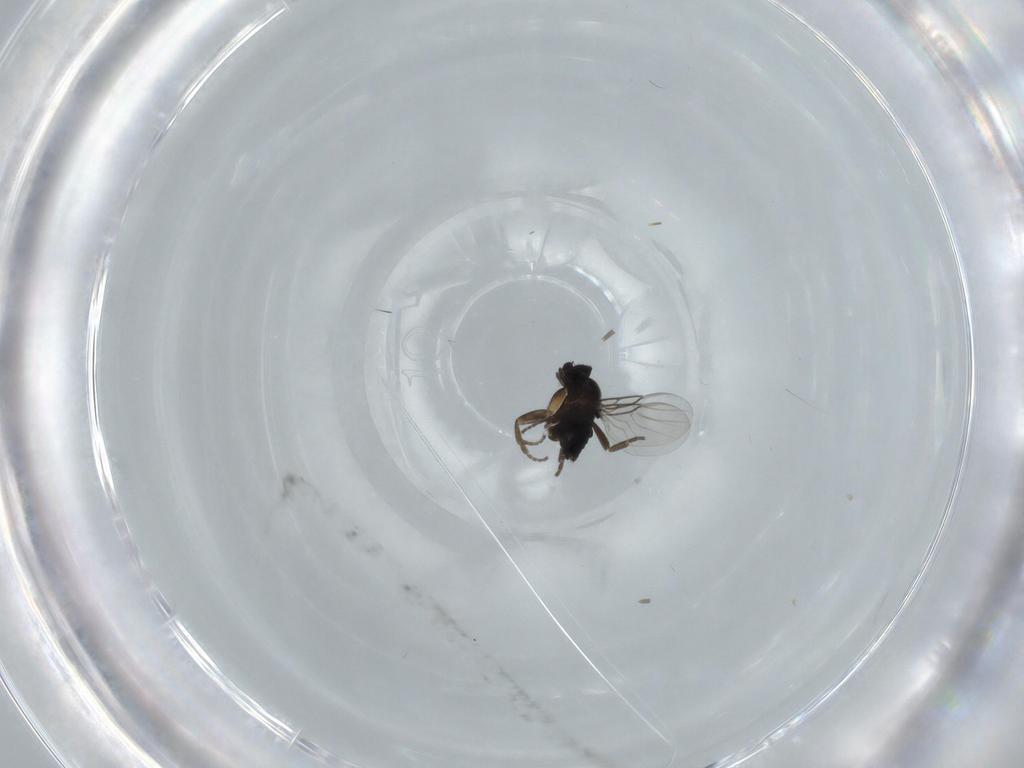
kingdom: Animalia
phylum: Arthropoda
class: Insecta
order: Diptera
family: Phoridae
